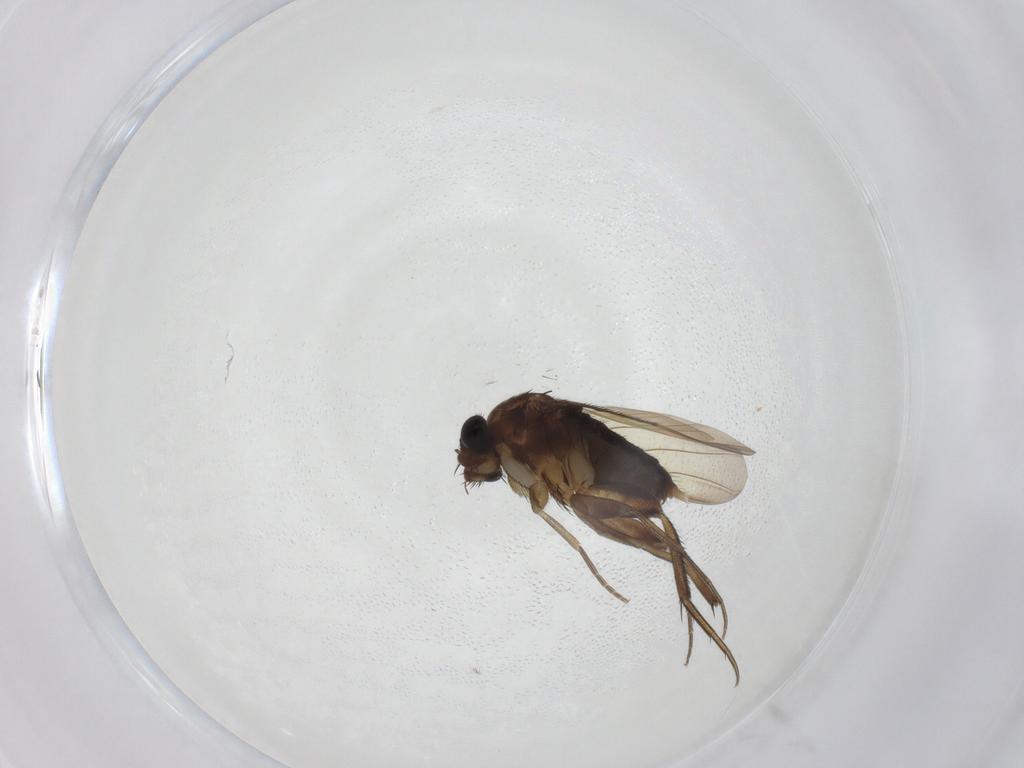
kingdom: Animalia
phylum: Arthropoda
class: Insecta
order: Diptera
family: Phoridae
